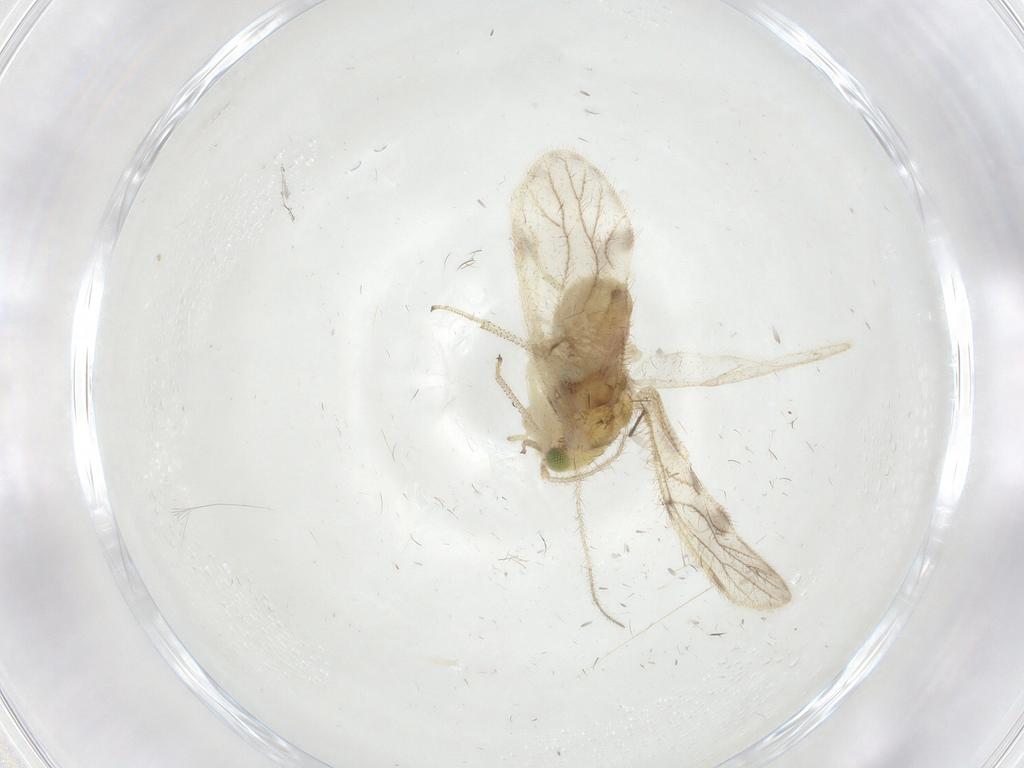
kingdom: Animalia
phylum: Arthropoda
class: Insecta
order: Psocodea
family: Pseudocaeciliidae
